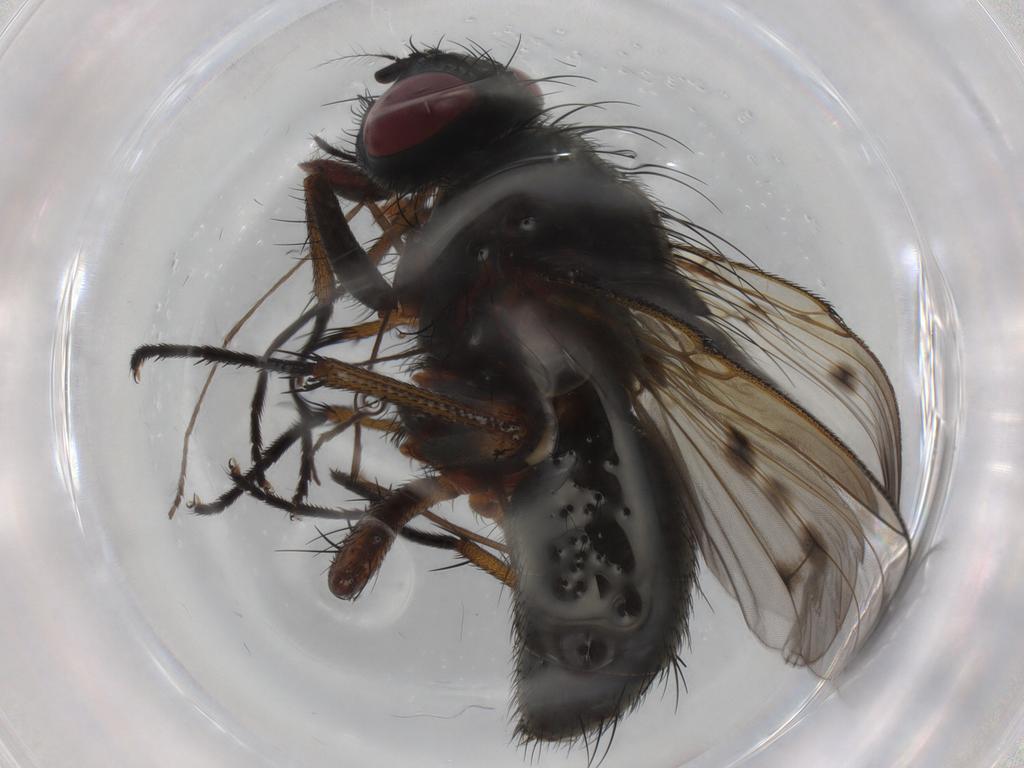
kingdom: Animalia
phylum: Arthropoda
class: Insecta
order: Diptera
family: Muscidae
